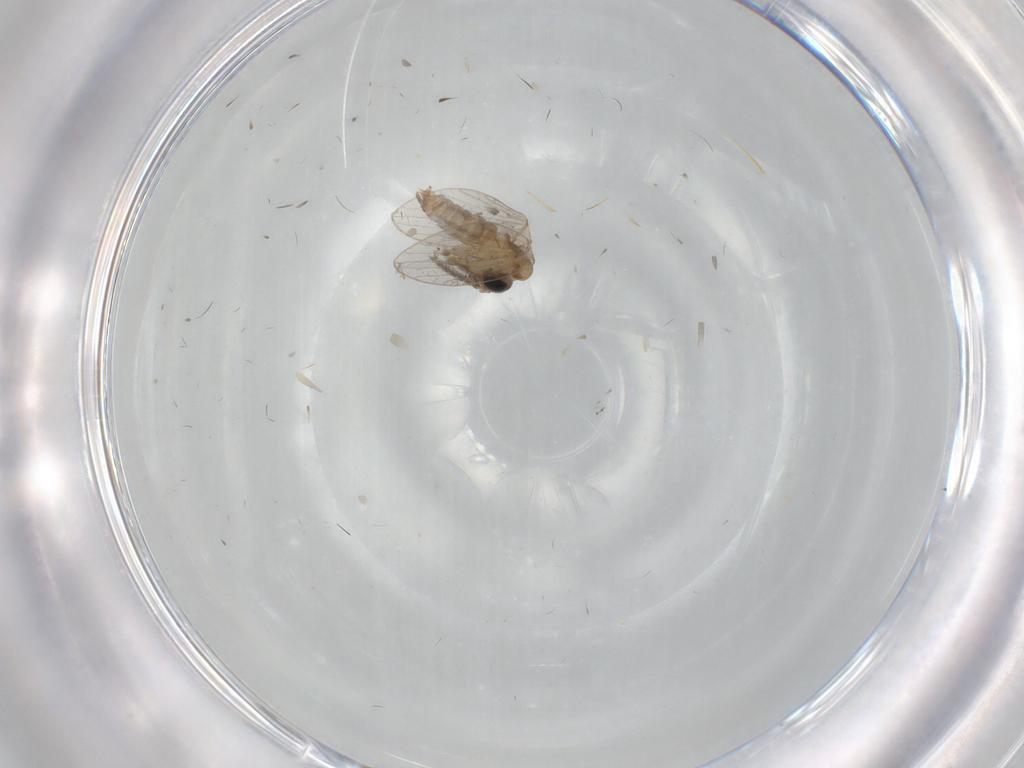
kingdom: Animalia
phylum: Arthropoda
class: Insecta
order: Diptera
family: Cecidomyiidae
